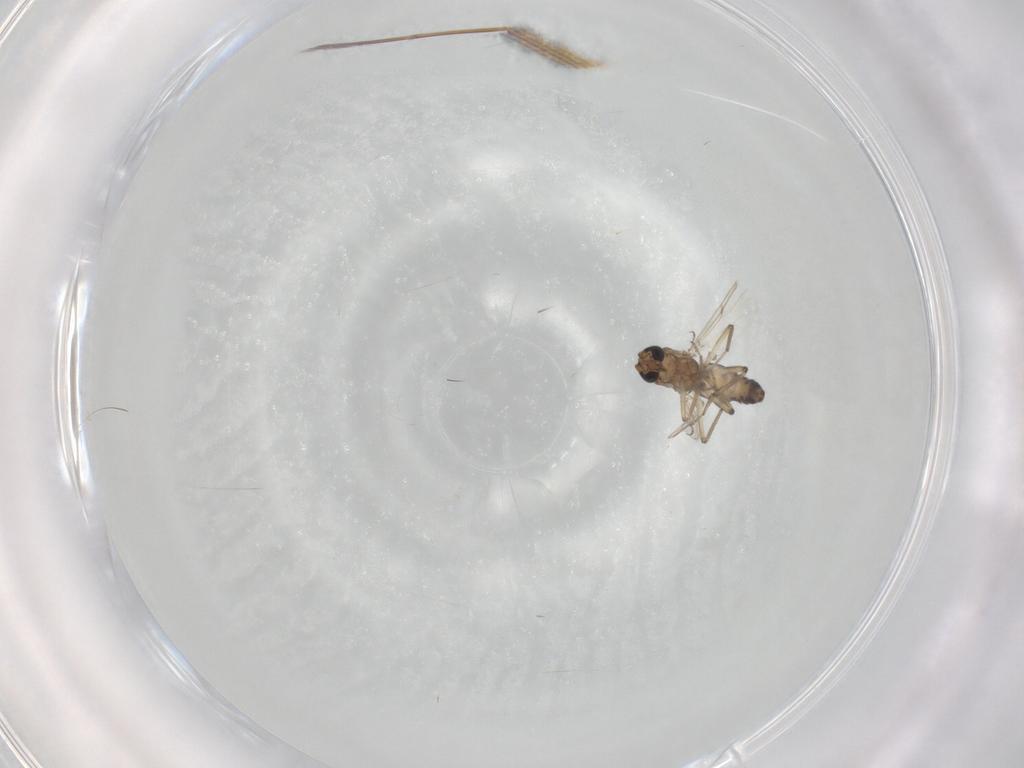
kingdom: Animalia
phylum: Arthropoda
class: Insecta
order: Diptera
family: Ceratopogonidae
